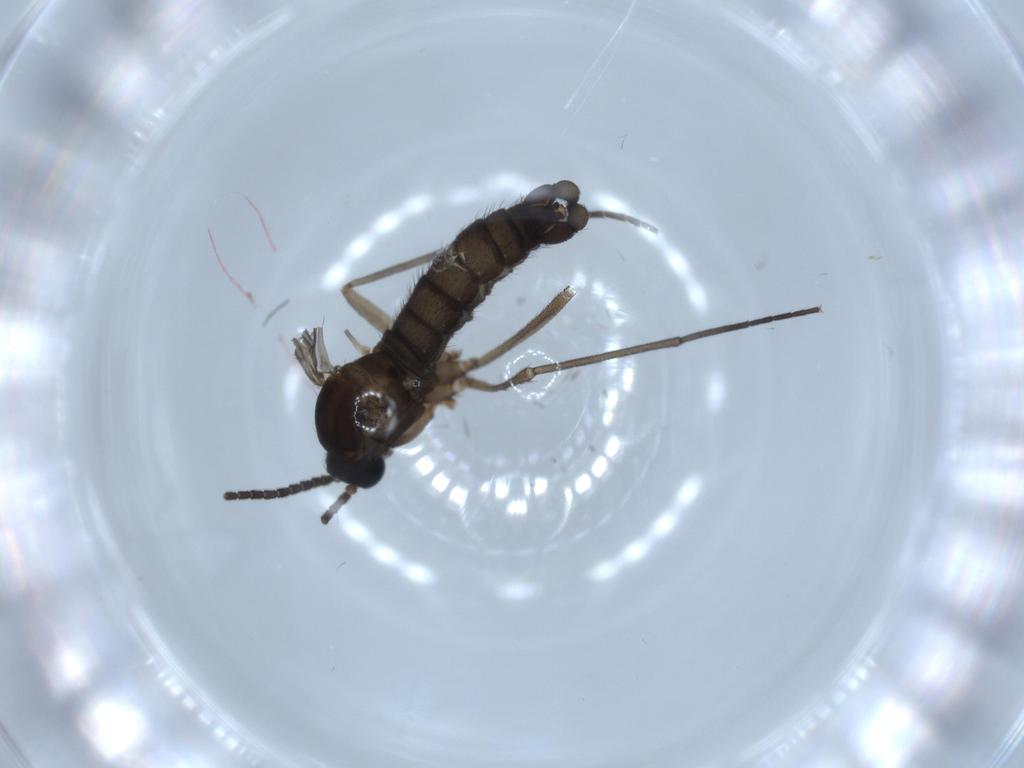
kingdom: Animalia
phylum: Arthropoda
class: Insecta
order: Diptera
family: Sciaridae
